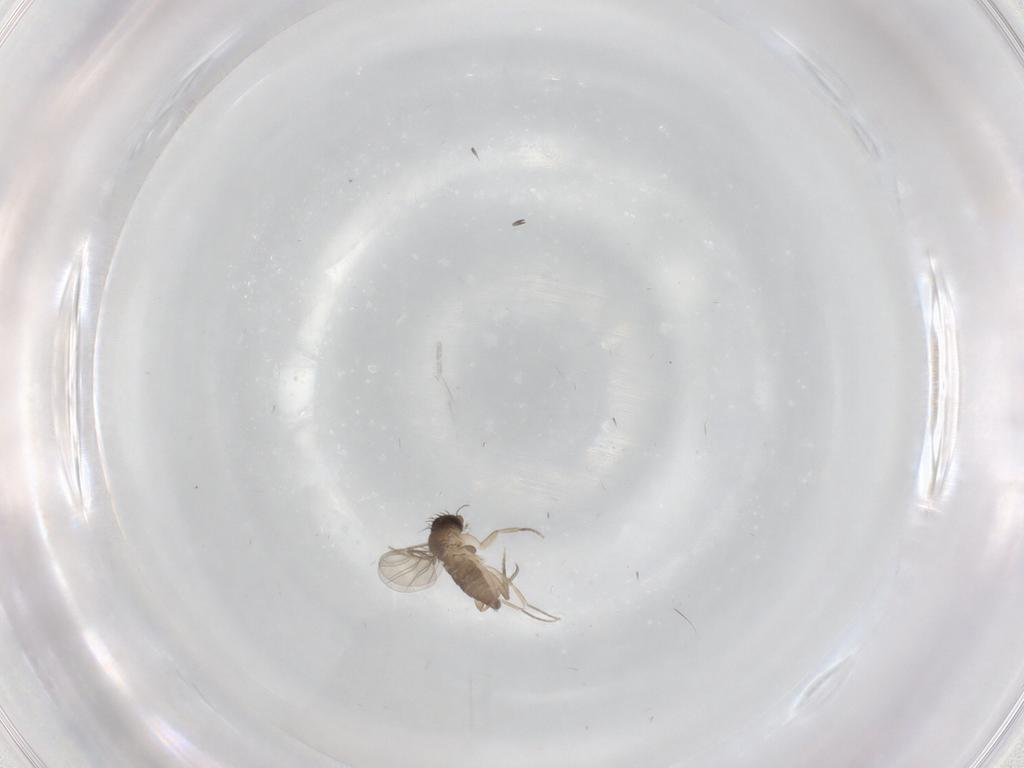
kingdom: Animalia
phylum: Arthropoda
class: Insecta
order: Diptera
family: Phoridae
